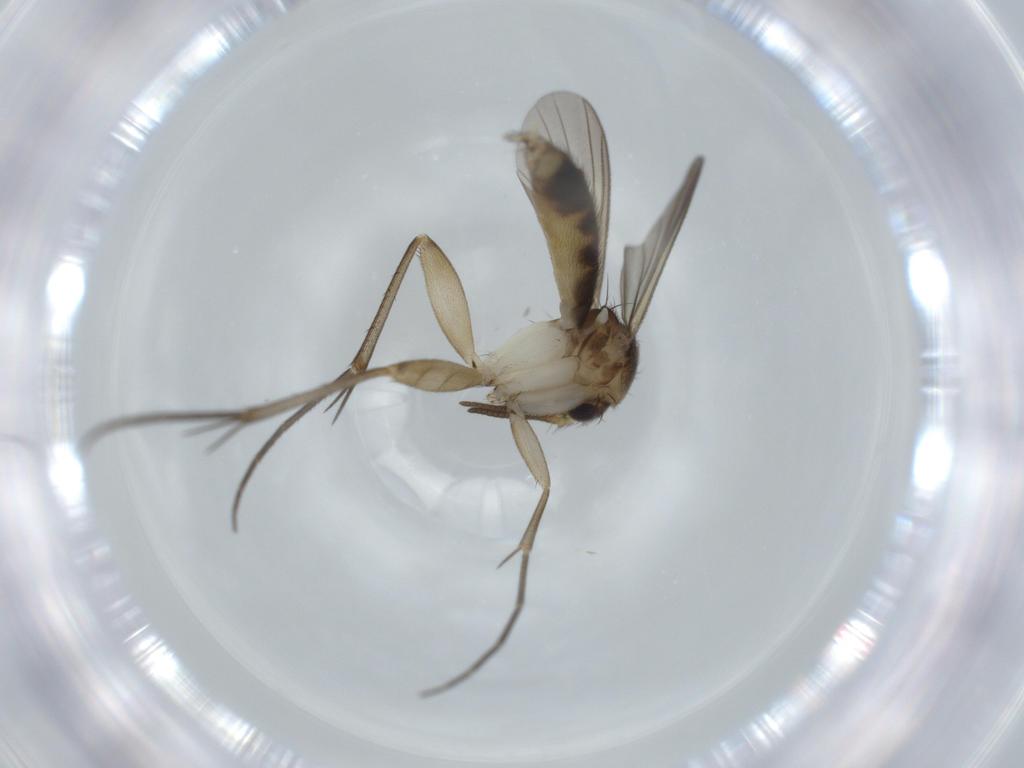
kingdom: Animalia
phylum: Arthropoda
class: Insecta
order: Diptera
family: Sciaridae
